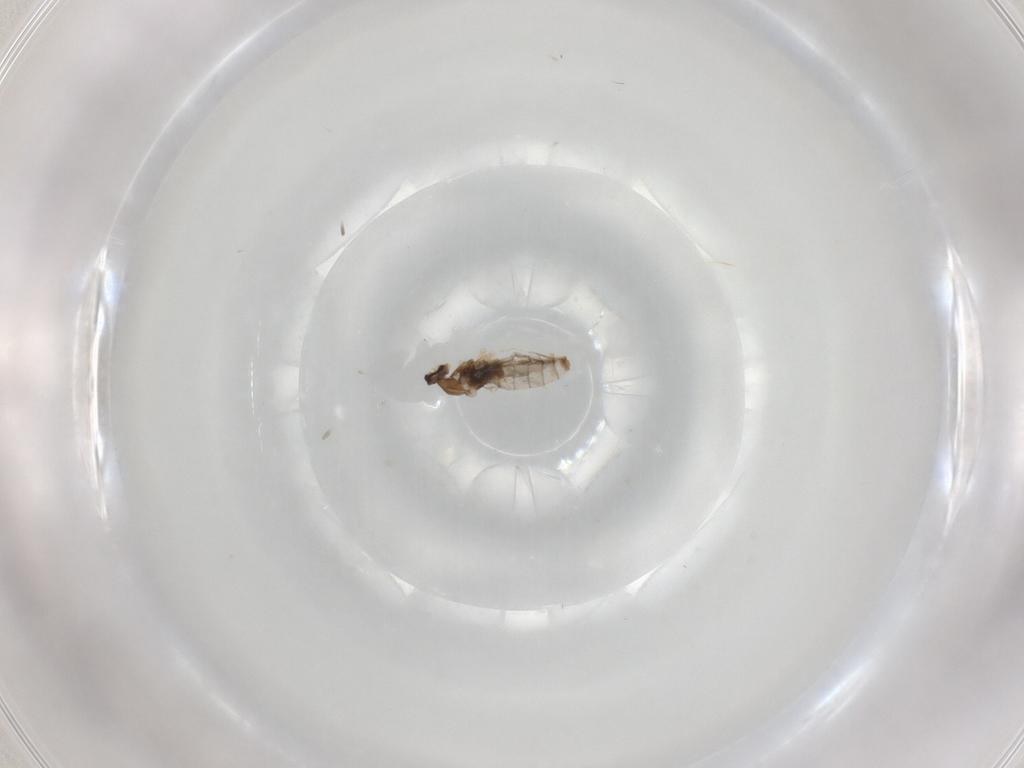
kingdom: Animalia
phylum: Arthropoda
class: Insecta
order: Diptera
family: Cecidomyiidae
